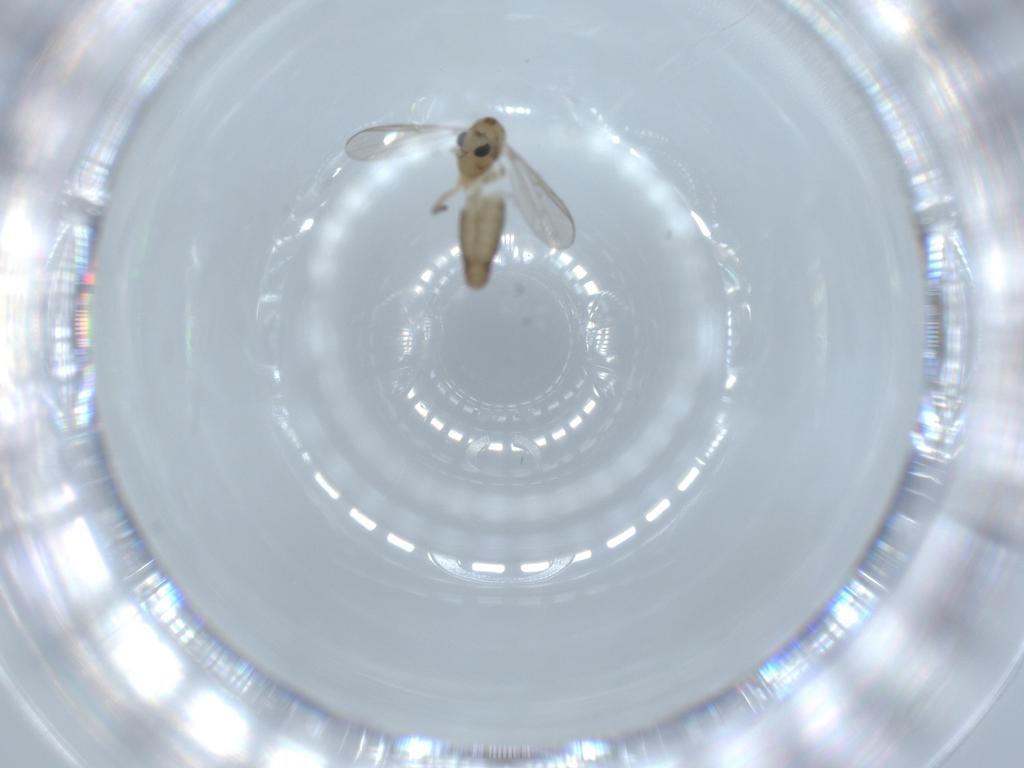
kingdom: Animalia
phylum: Arthropoda
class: Insecta
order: Diptera
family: Chironomidae
